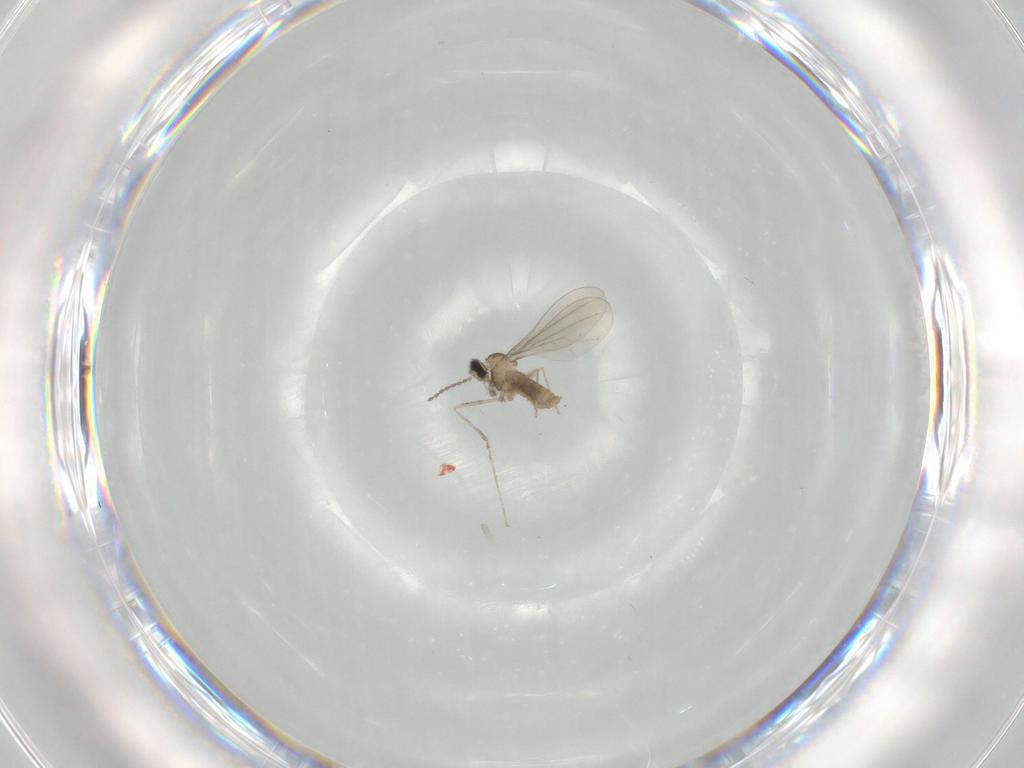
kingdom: Animalia
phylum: Arthropoda
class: Insecta
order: Diptera
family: Cecidomyiidae
